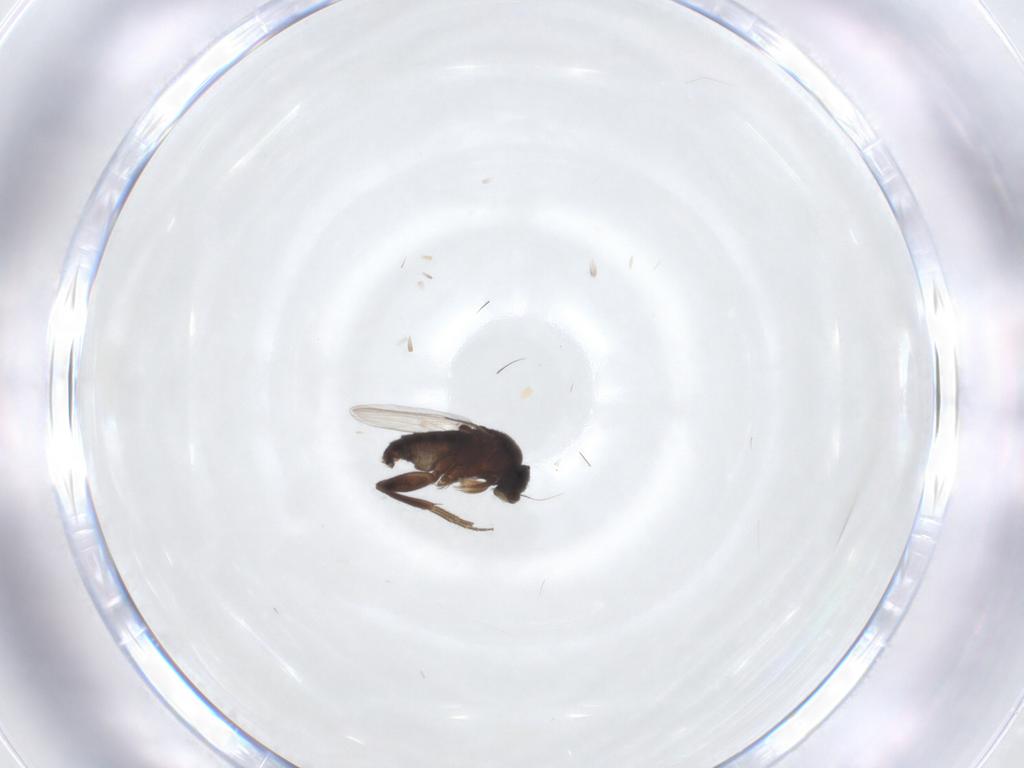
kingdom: Animalia
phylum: Arthropoda
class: Insecta
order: Diptera
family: Phoridae
